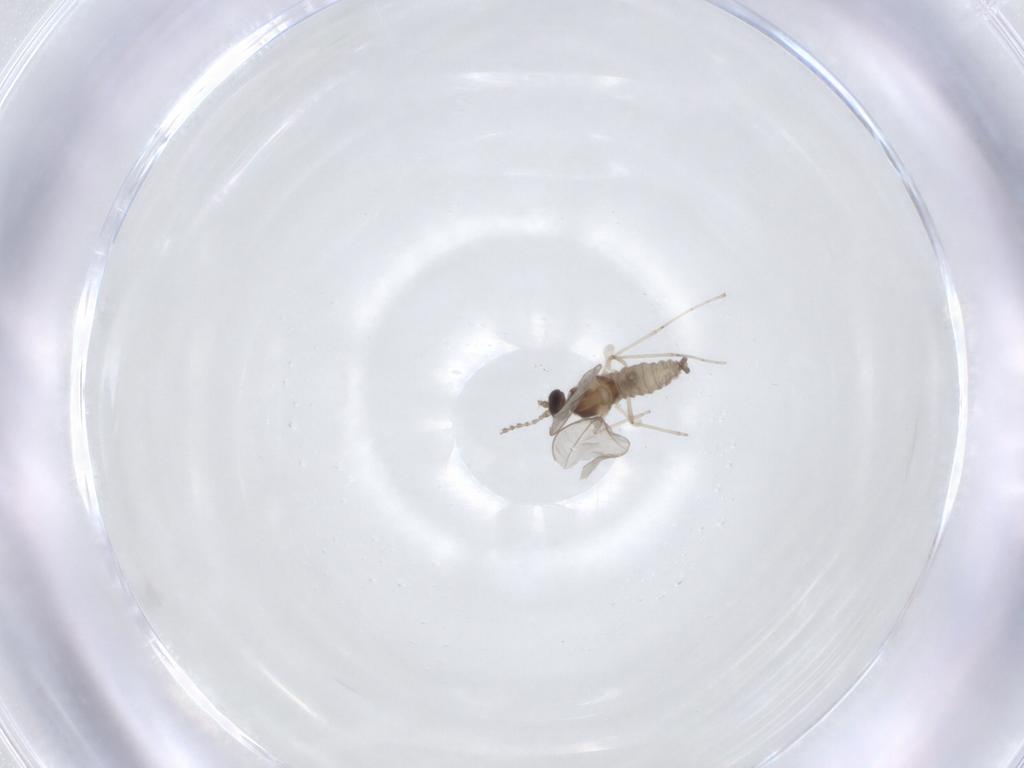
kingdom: Animalia
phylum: Arthropoda
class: Insecta
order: Diptera
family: Cecidomyiidae
